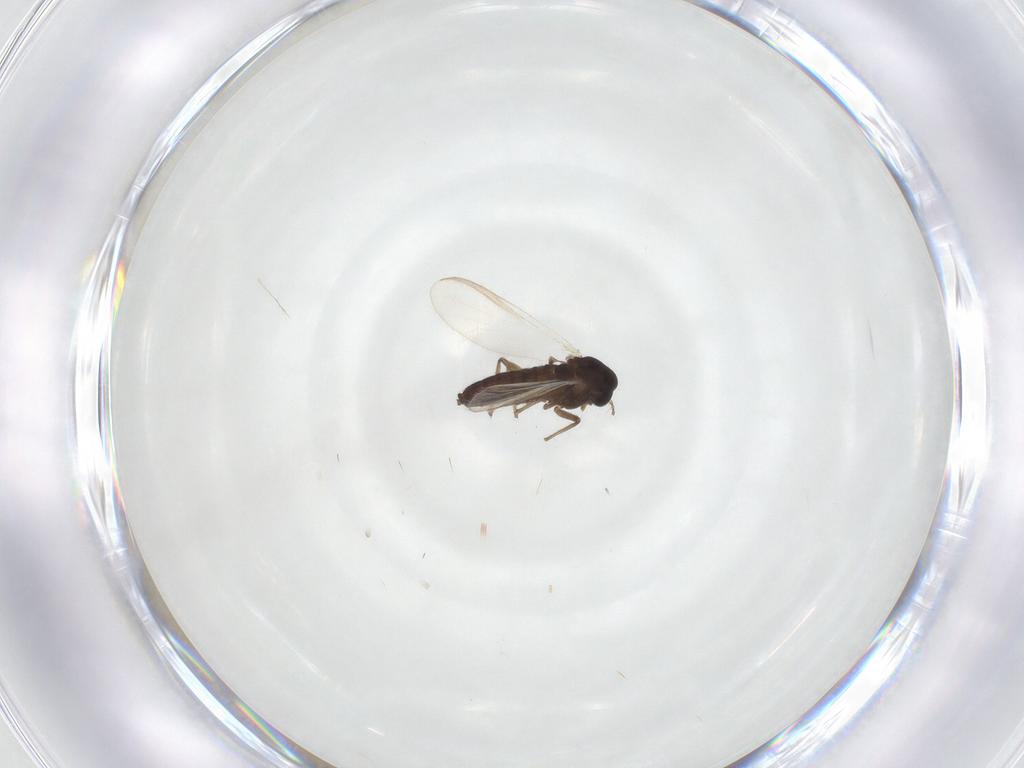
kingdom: Animalia
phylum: Arthropoda
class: Insecta
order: Diptera
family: Chironomidae
